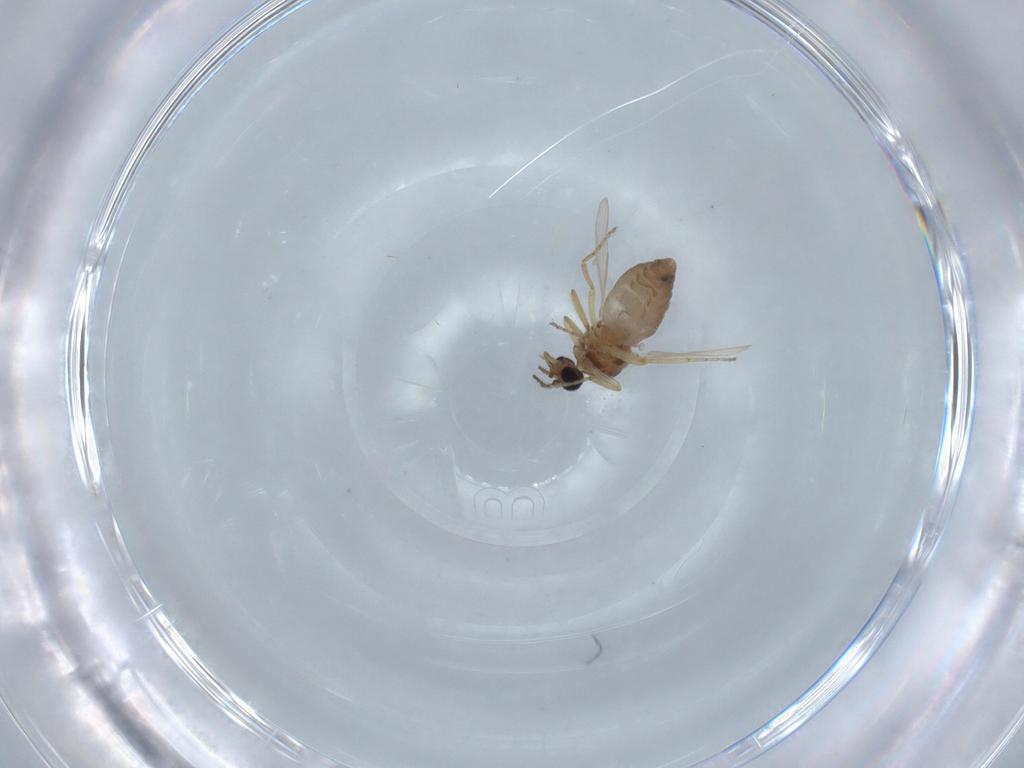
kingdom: Animalia
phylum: Arthropoda
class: Insecta
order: Diptera
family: Ceratopogonidae
